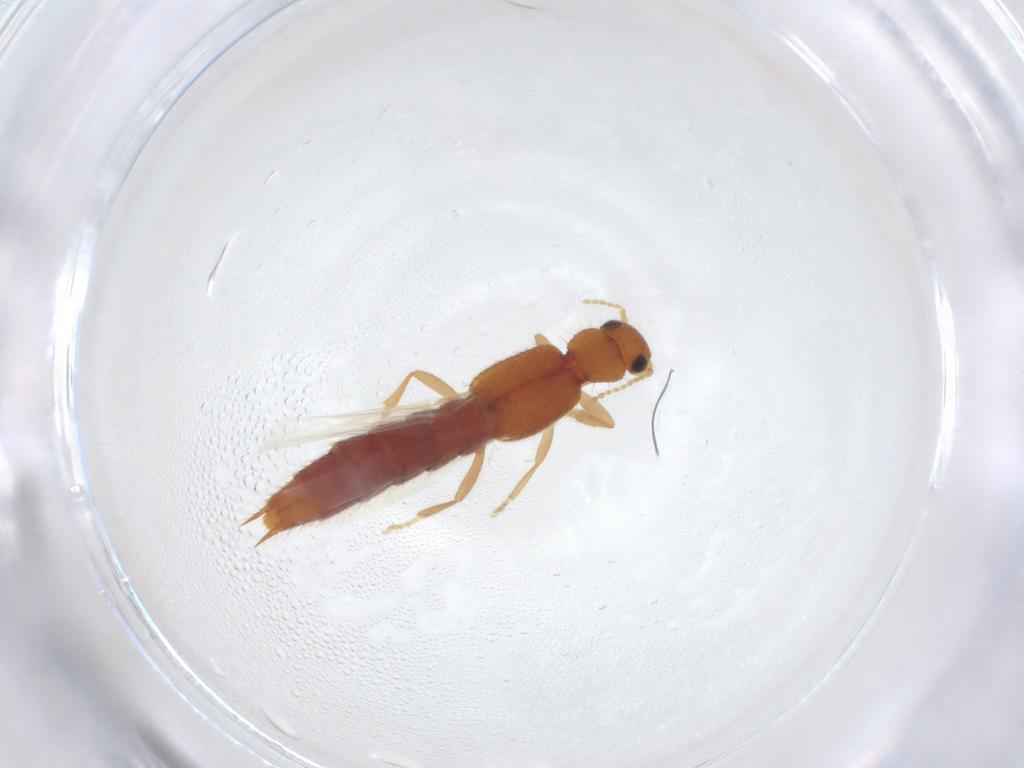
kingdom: Animalia
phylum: Arthropoda
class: Insecta
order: Coleoptera
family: Staphylinidae
